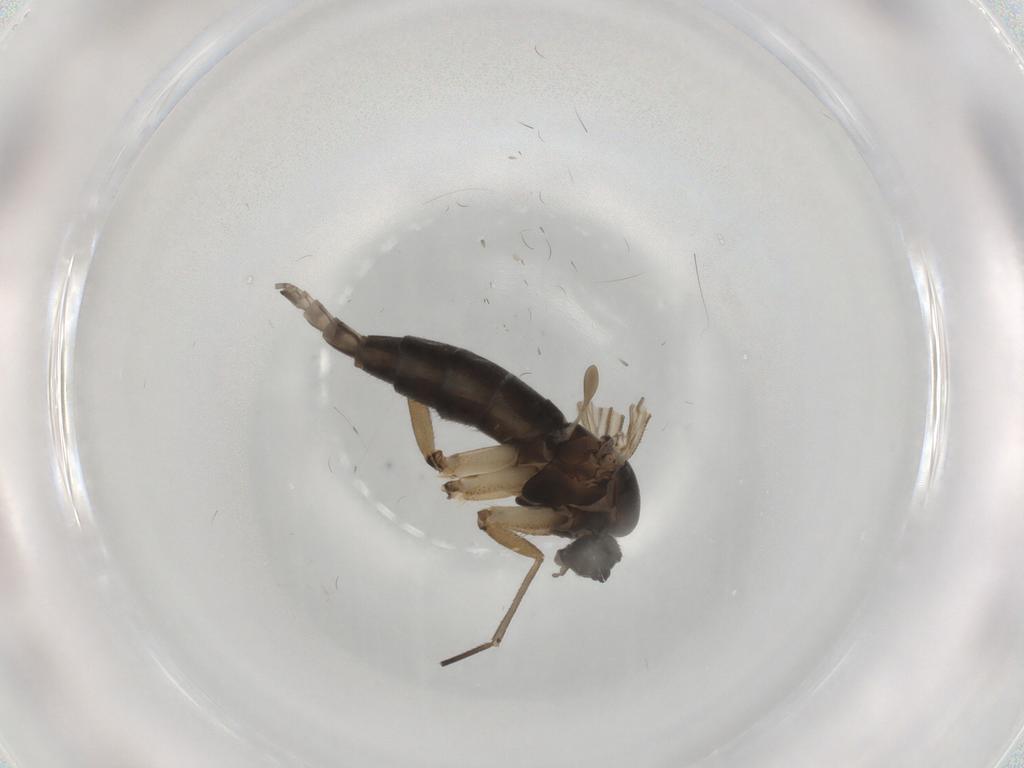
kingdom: Animalia
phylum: Arthropoda
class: Insecta
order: Diptera
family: Sciaridae
